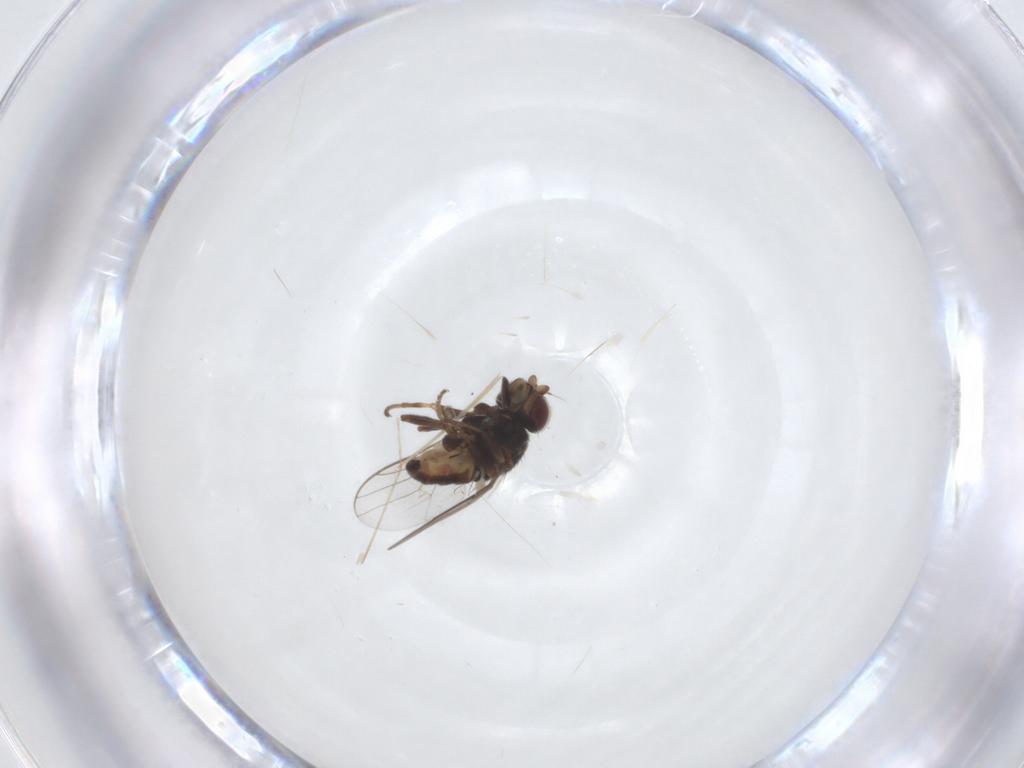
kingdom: Animalia
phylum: Arthropoda
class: Insecta
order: Diptera
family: Chloropidae
